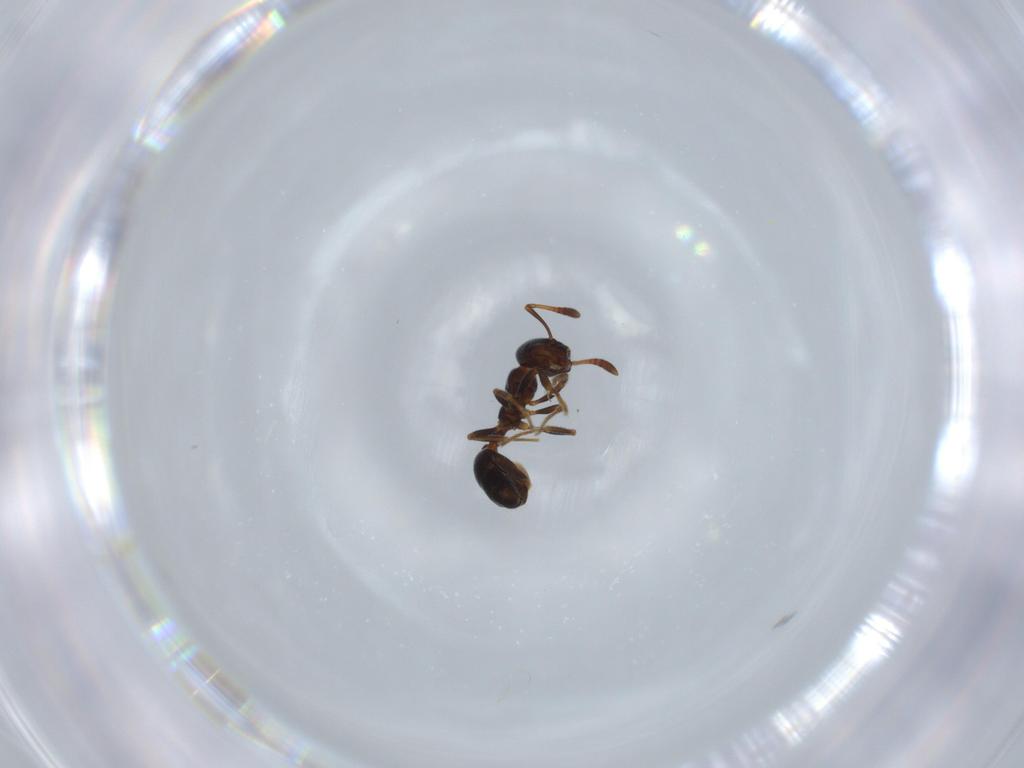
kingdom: Animalia
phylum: Arthropoda
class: Insecta
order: Hymenoptera
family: Formicidae
